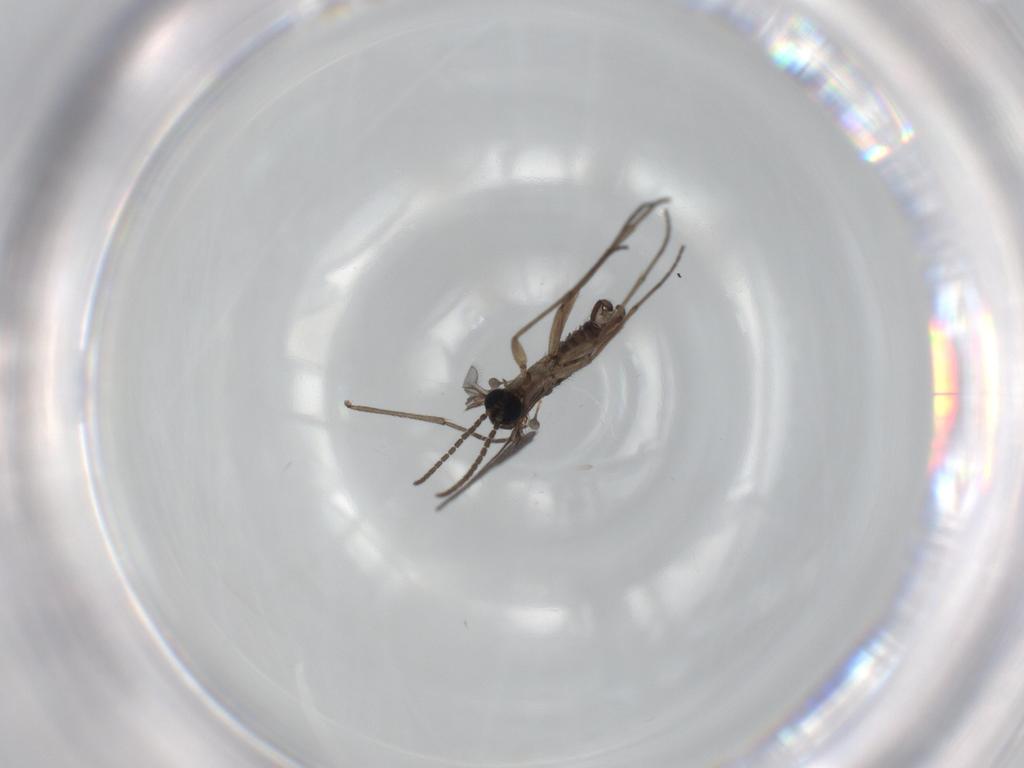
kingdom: Animalia
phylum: Arthropoda
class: Insecta
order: Diptera
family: Sciaridae
